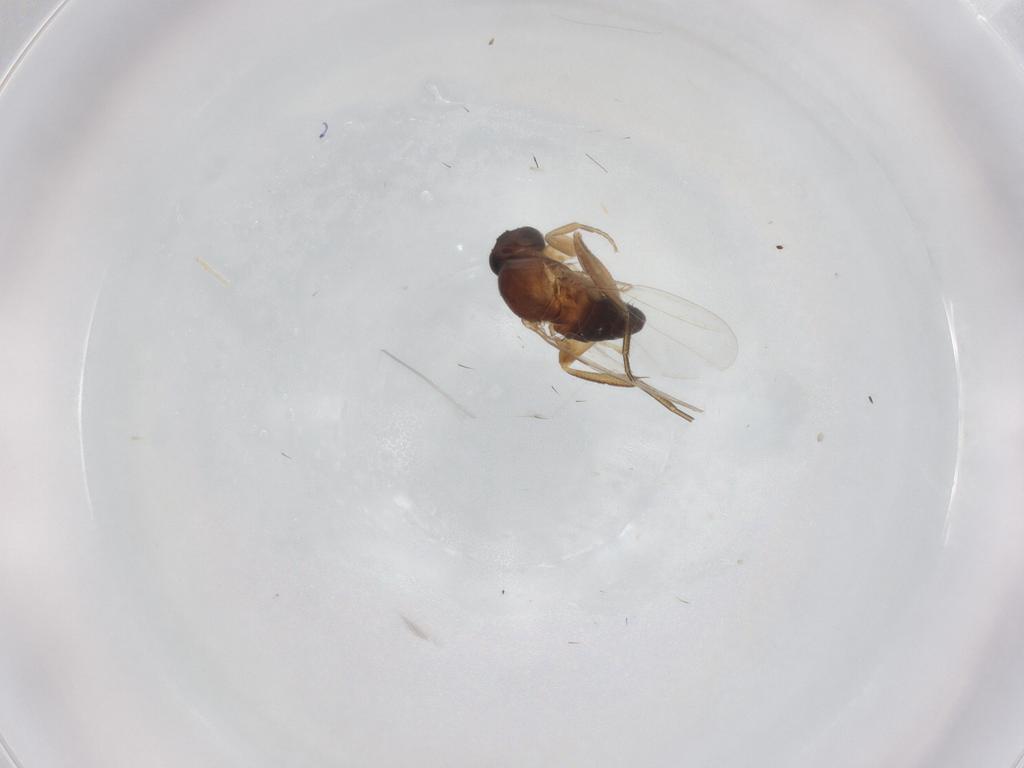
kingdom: Animalia
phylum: Arthropoda
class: Insecta
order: Diptera
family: Phoridae
